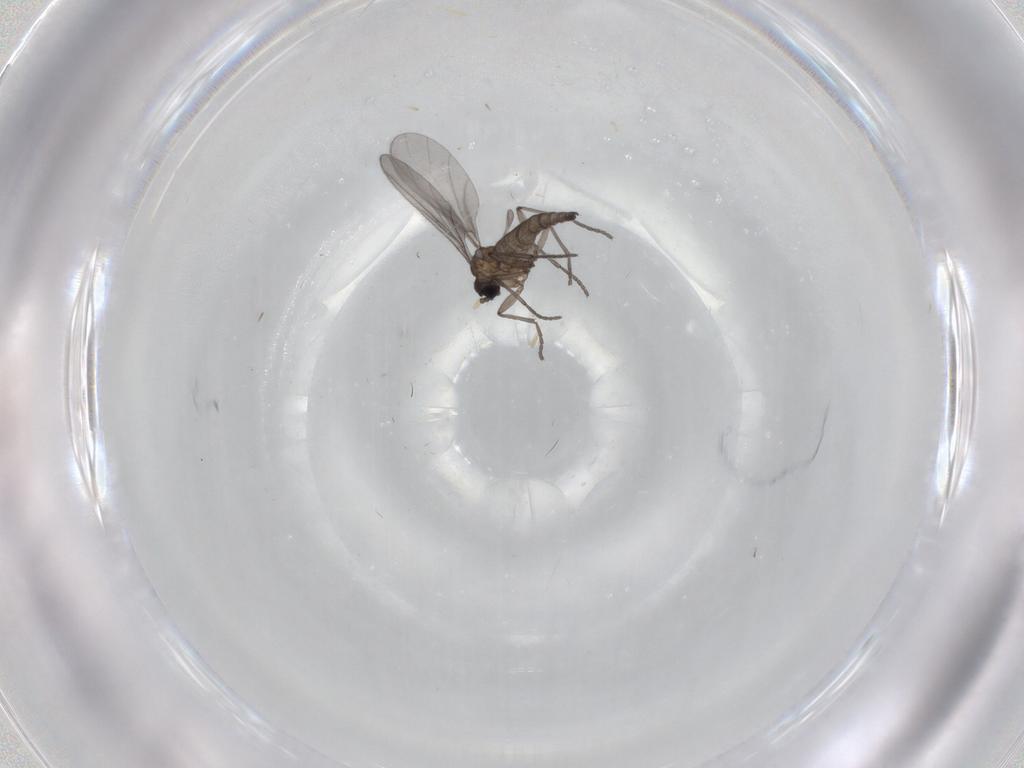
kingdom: Animalia
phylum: Arthropoda
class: Insecta
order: Diptera
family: Sciaridae
